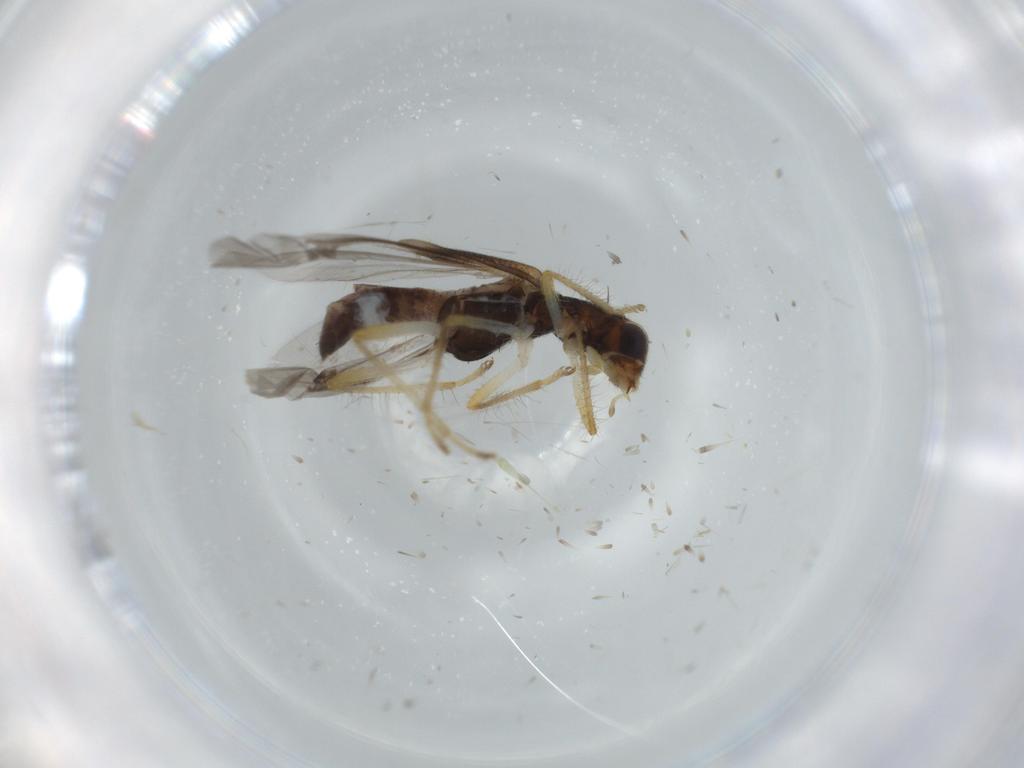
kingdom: Animalia
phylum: Arthropoda
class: Insecta
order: Coleoptera
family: Cleridae
